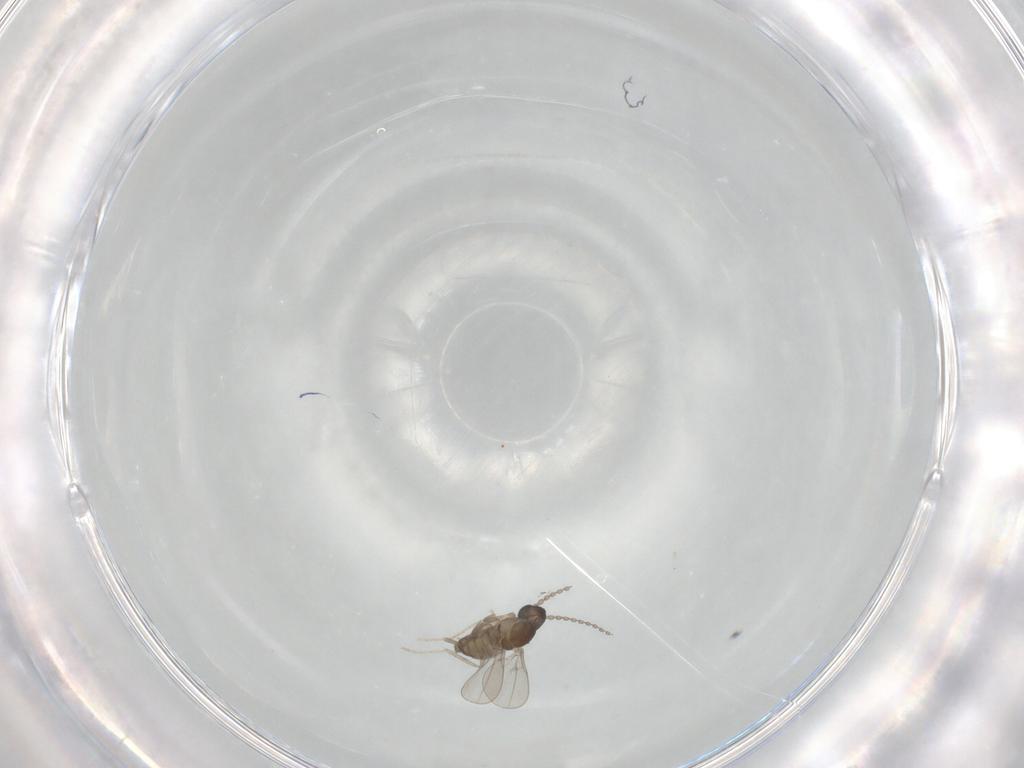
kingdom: Animalia
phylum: Arthropoda
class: Insecta
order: Diptera
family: Cecidomyiidae
